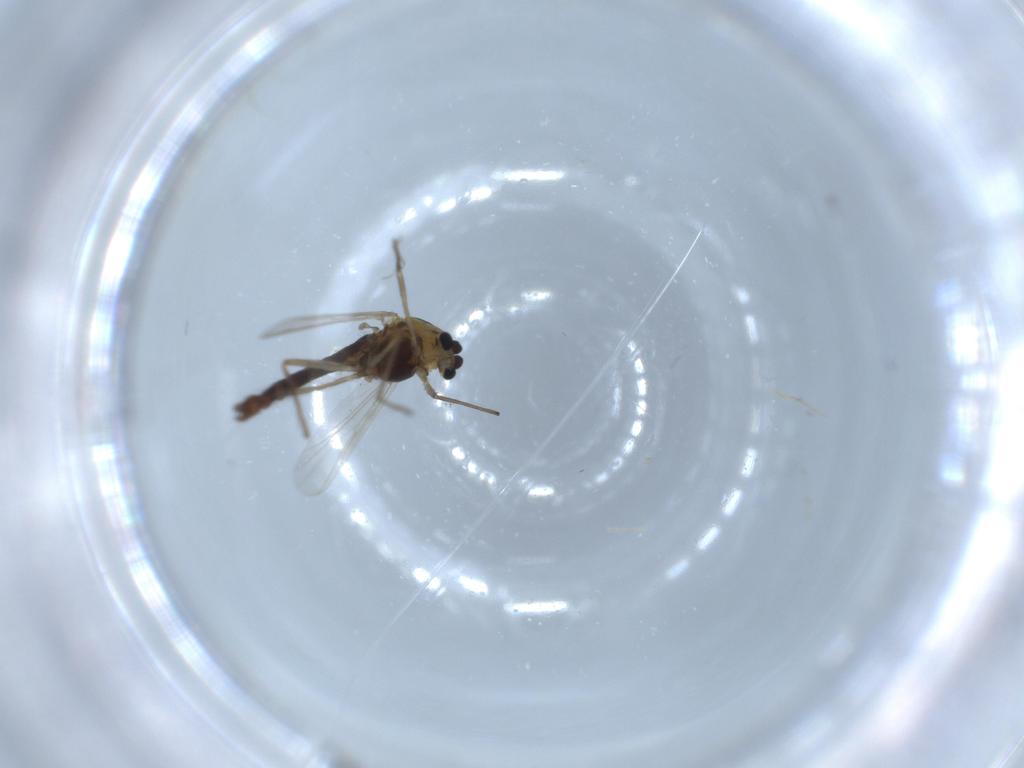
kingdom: Animalia
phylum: Arthropoda
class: Insecta
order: Diptera
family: Chironomidae
